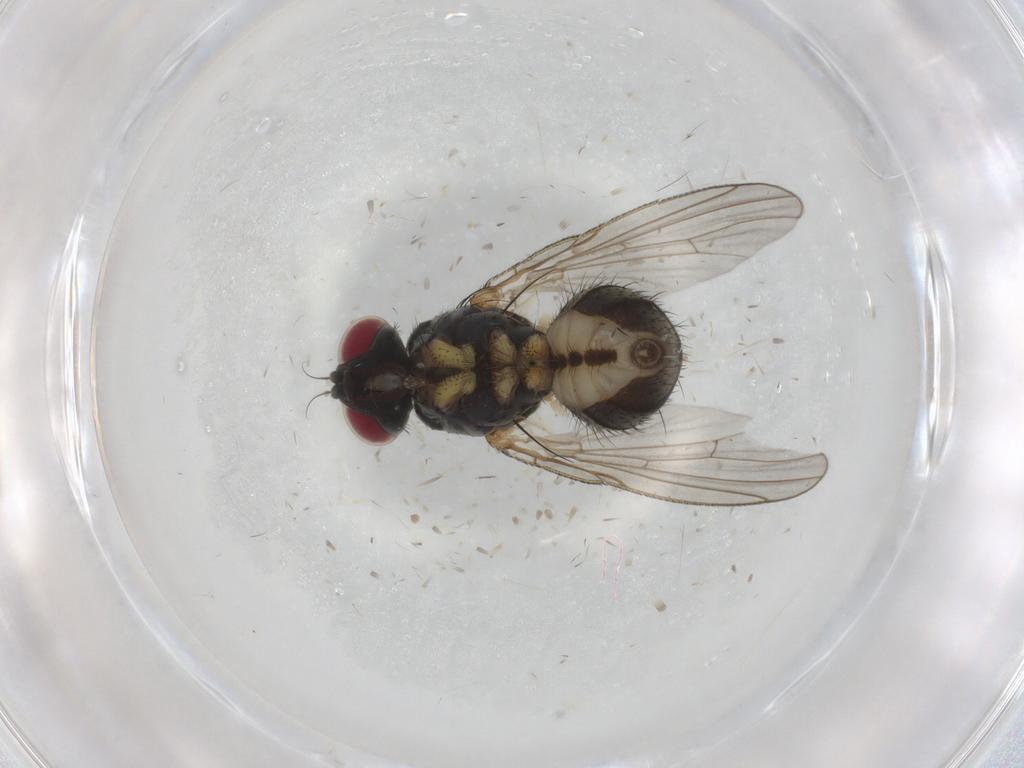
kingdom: Animalia
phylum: Arthropoda
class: Insecta
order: Diptera
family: Muscidae
